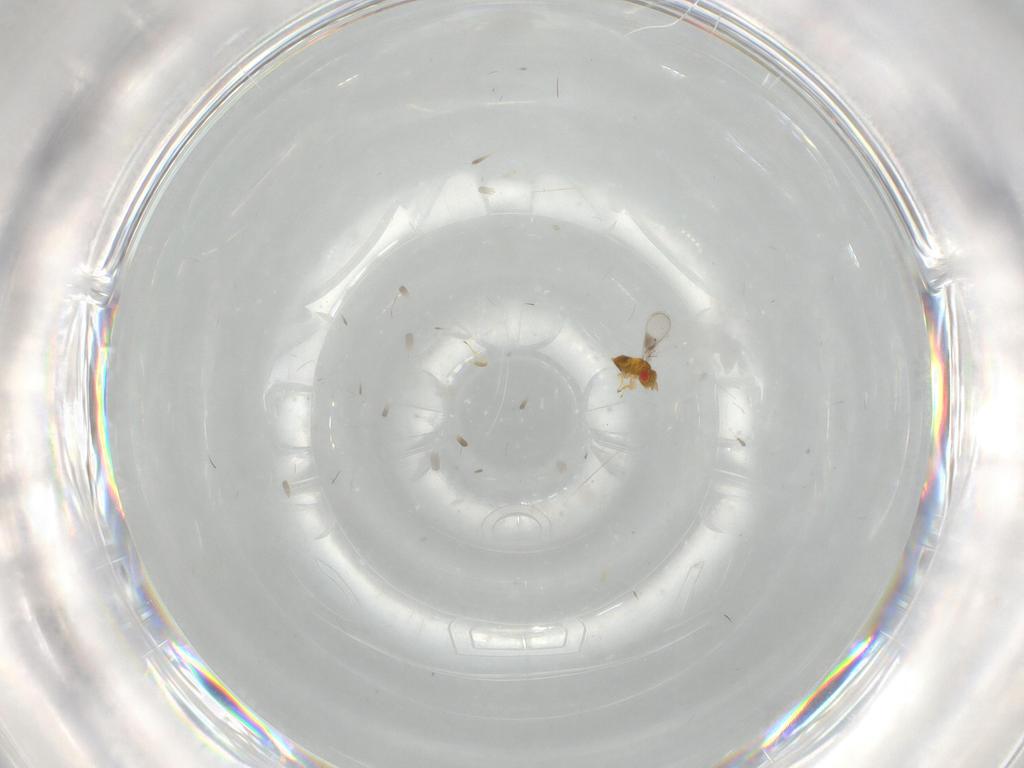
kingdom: Animalia
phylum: Arthropoda
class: Insecta
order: Hymenoptera
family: Trichogrammatidae
